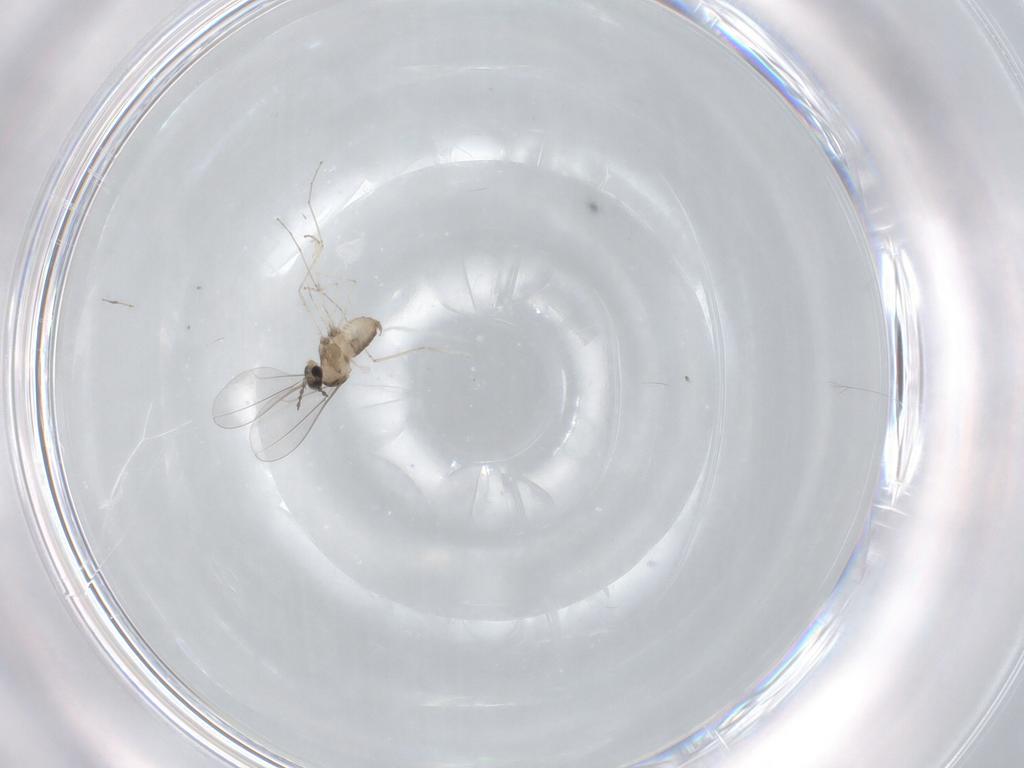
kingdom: Animalia
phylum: Arthropoda
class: Insecta
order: Diptera
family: Cecidomyiidae
